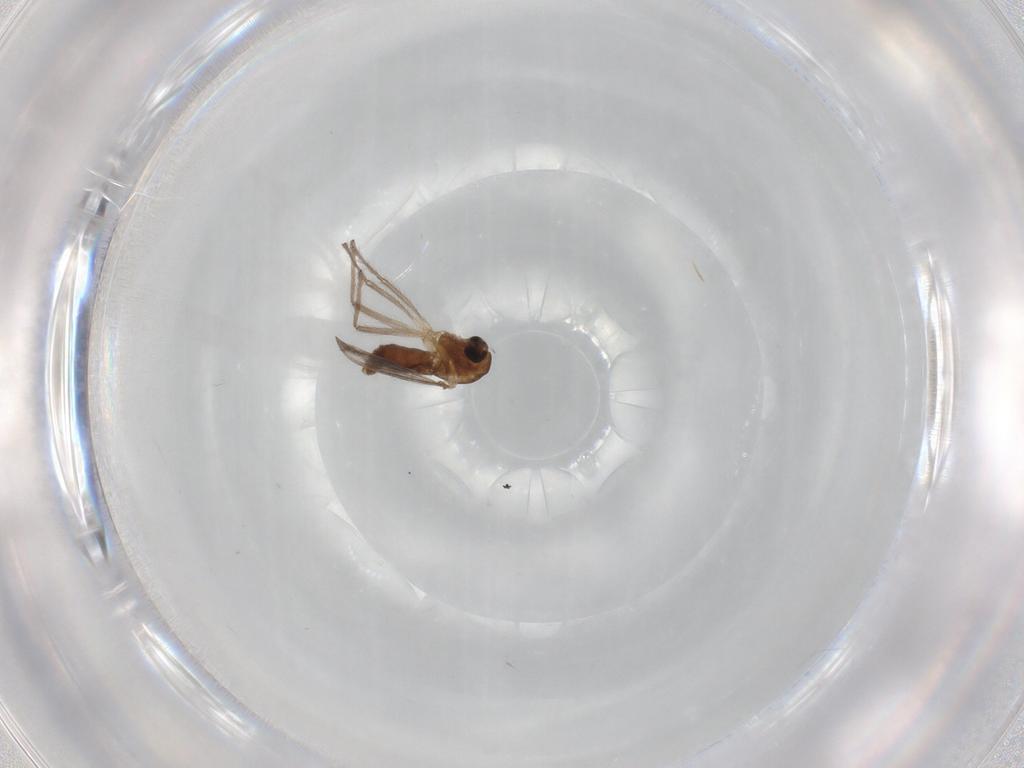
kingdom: Animalia
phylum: Arthropoda
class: Insecta
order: Diptera
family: Chironomidae
